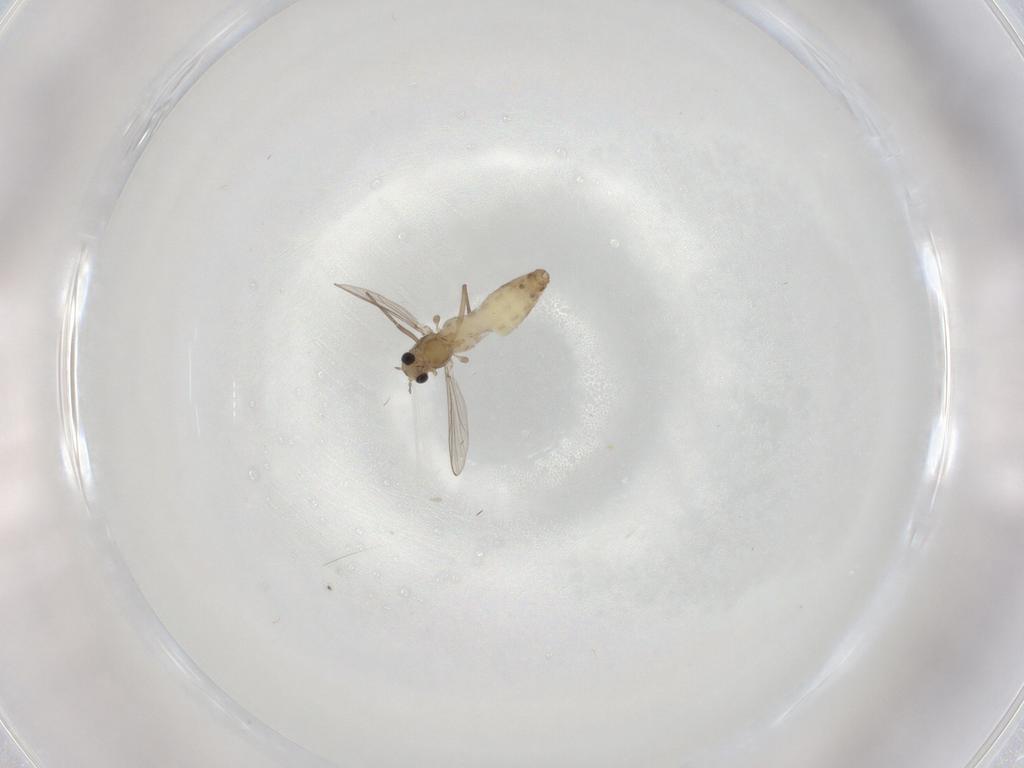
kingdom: Animalia
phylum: Arthropoda
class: Insecta
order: Diptera
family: Chironomidae
